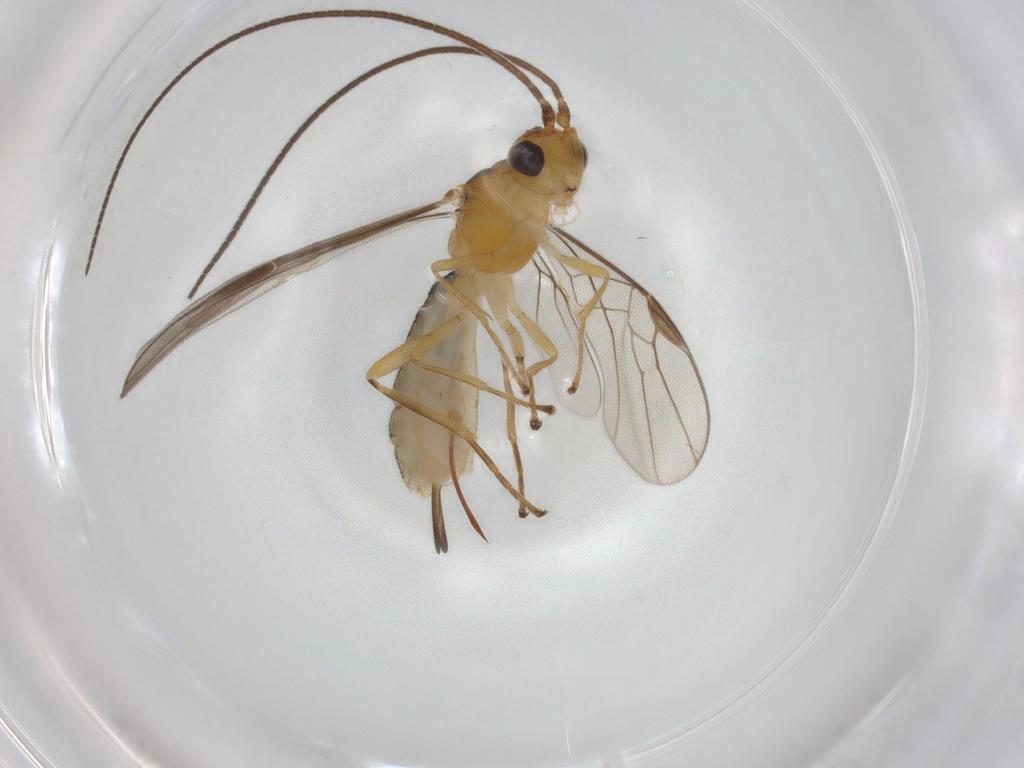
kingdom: Animalia
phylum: Arthropoda
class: Insecta
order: Hymenoptera
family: Braconidae
